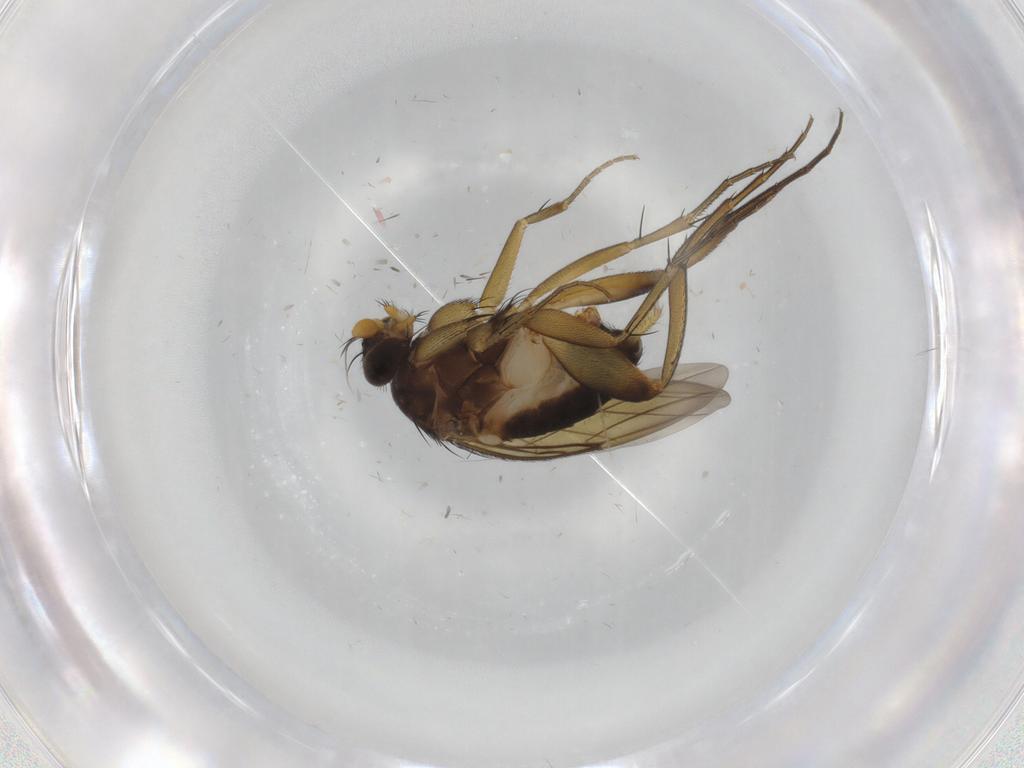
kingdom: Animalia
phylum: Arthropoda
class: Insecta
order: Diptera
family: Phoridae
